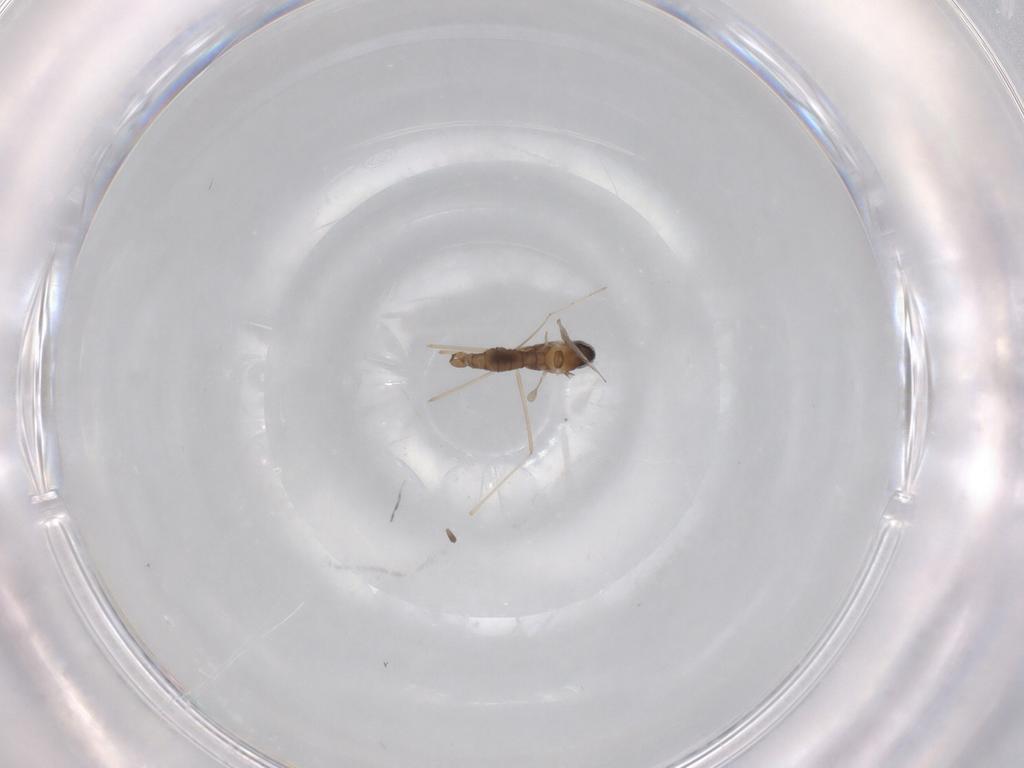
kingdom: Animalia
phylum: Arthropoda
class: Insecta
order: Diptera
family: Cecidomyiidae
